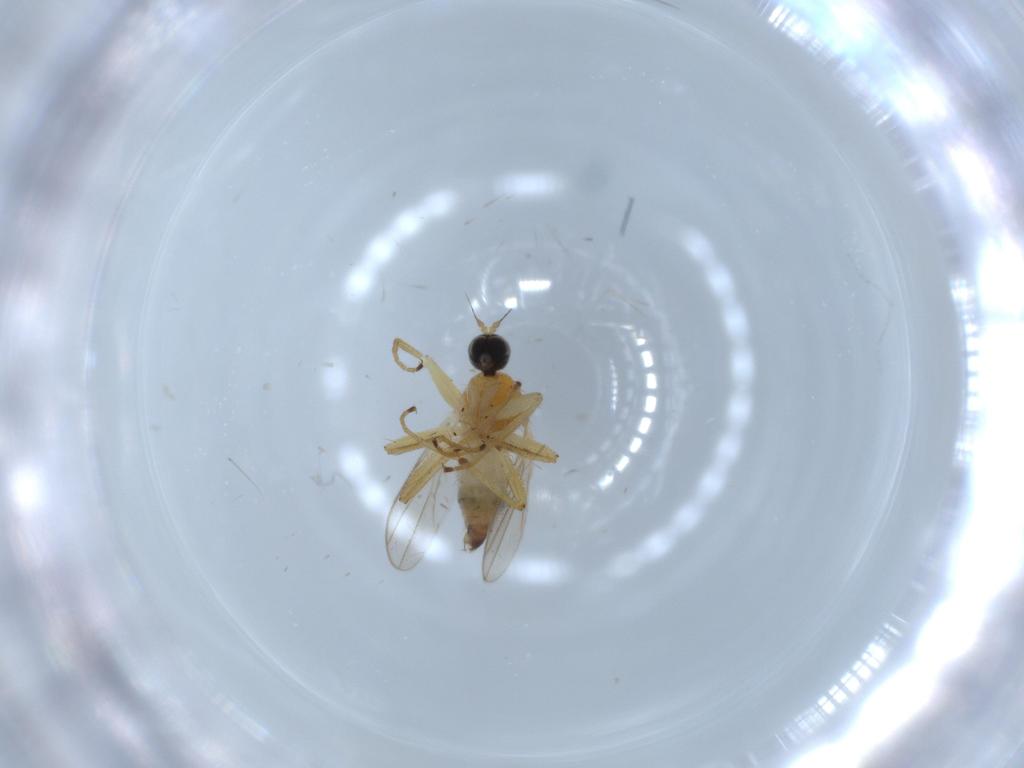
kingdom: Animalia
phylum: Arthropoda
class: Insecta
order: Diptera
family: Hybotidae
